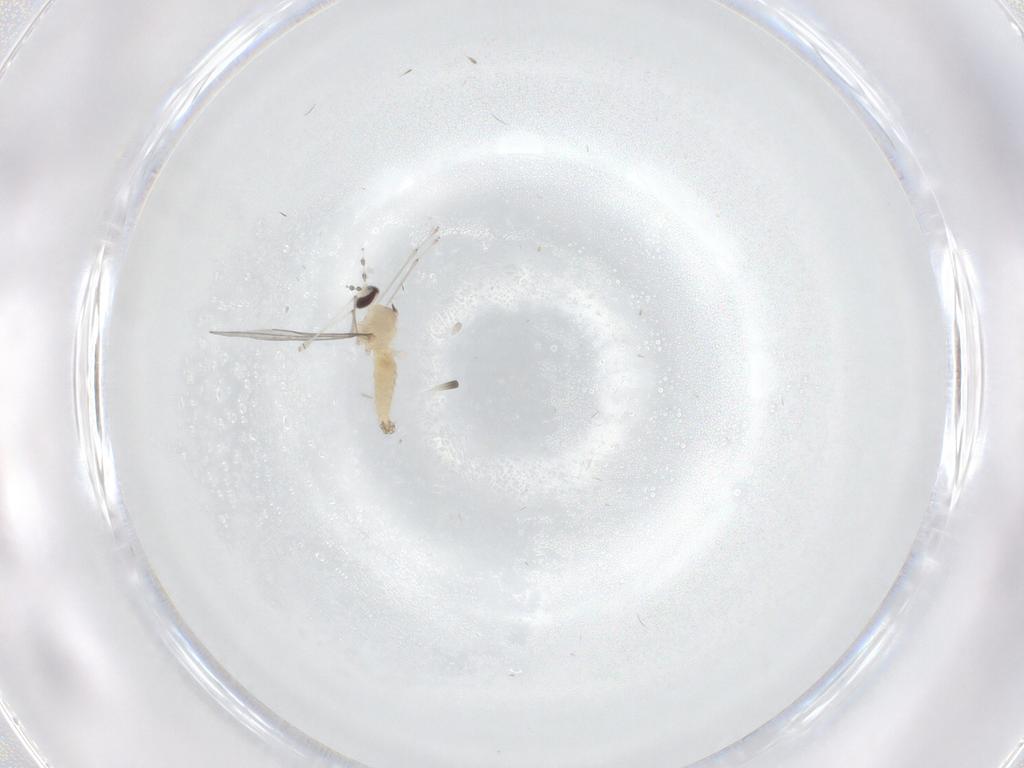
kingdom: Animalia
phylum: Arthropoda
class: Insecta
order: Diptera
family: Cecidomyiidae
